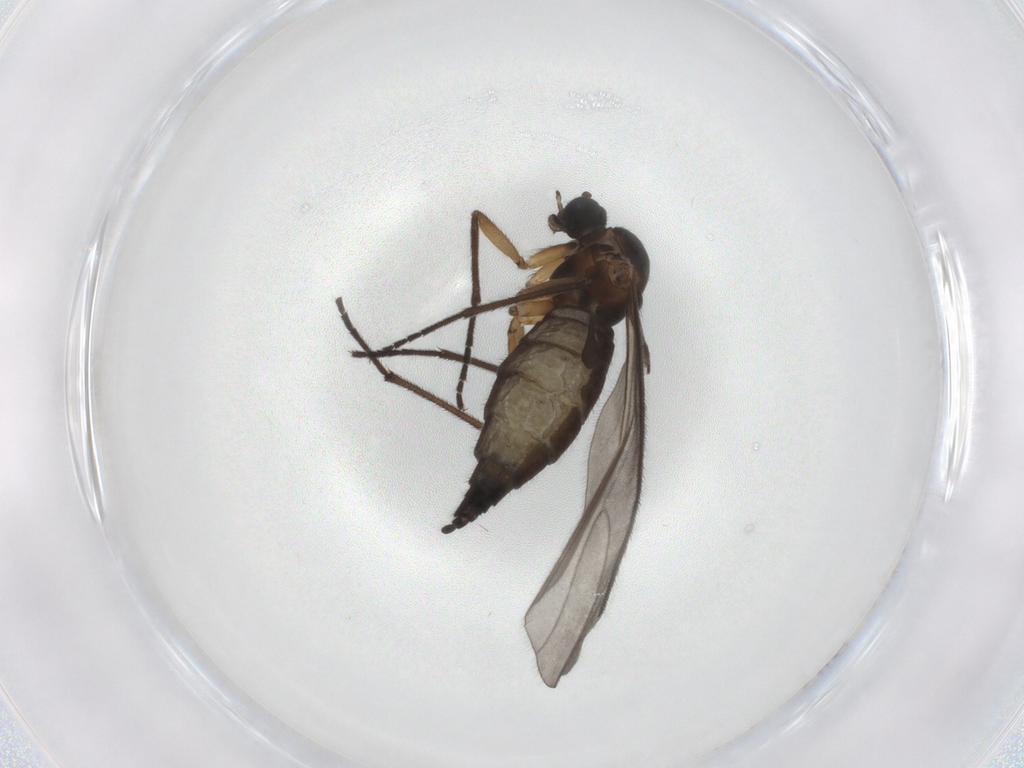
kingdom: Animalia
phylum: Arthropoda
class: Insecta
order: Diptera
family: Sciaridae
